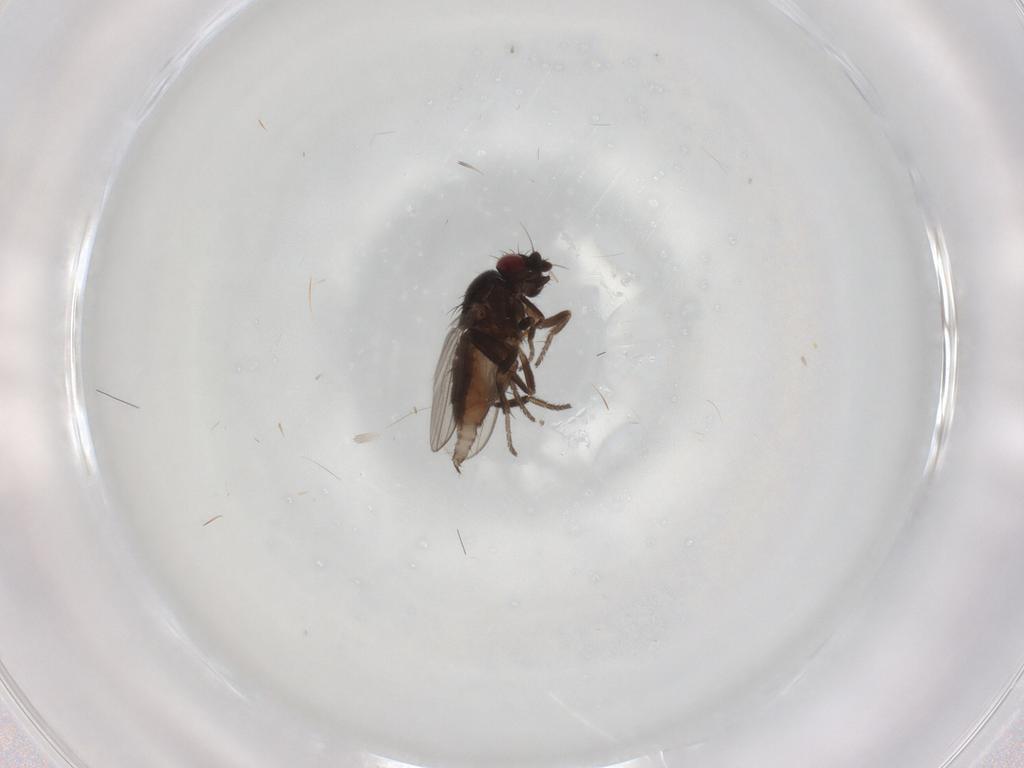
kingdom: Animalia
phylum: Arthropoda
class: Insecta
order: Diptera
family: Milichiidae
